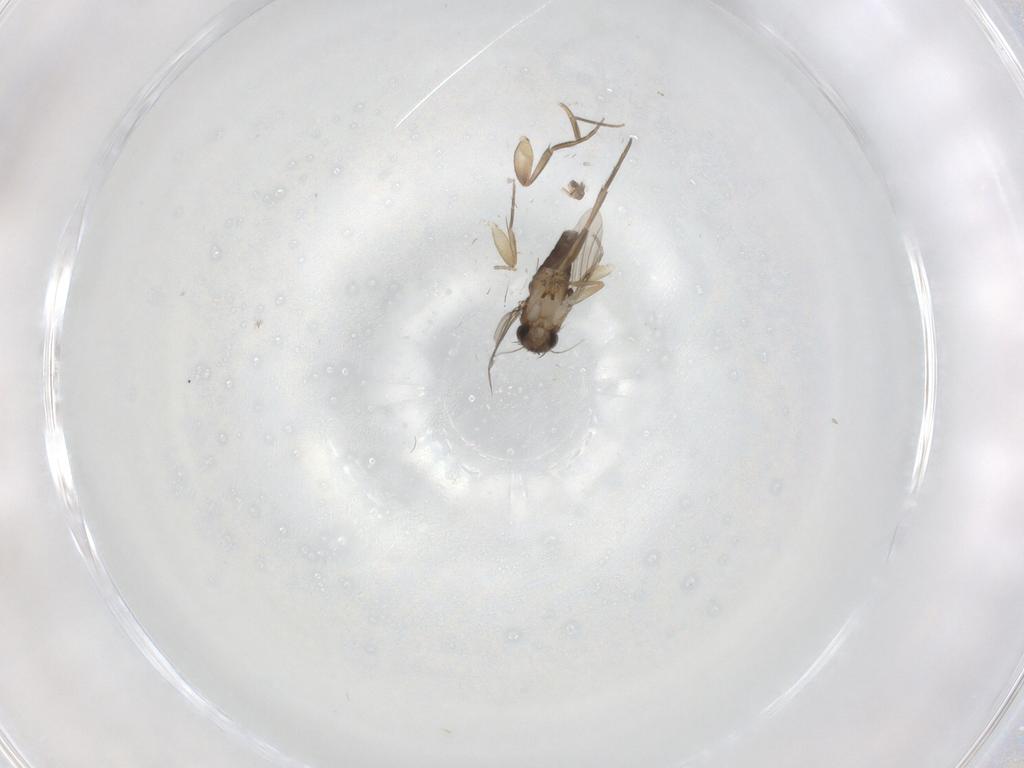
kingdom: Animalia
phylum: Arthropoda
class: Insecta
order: Diptera
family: Phoridae
